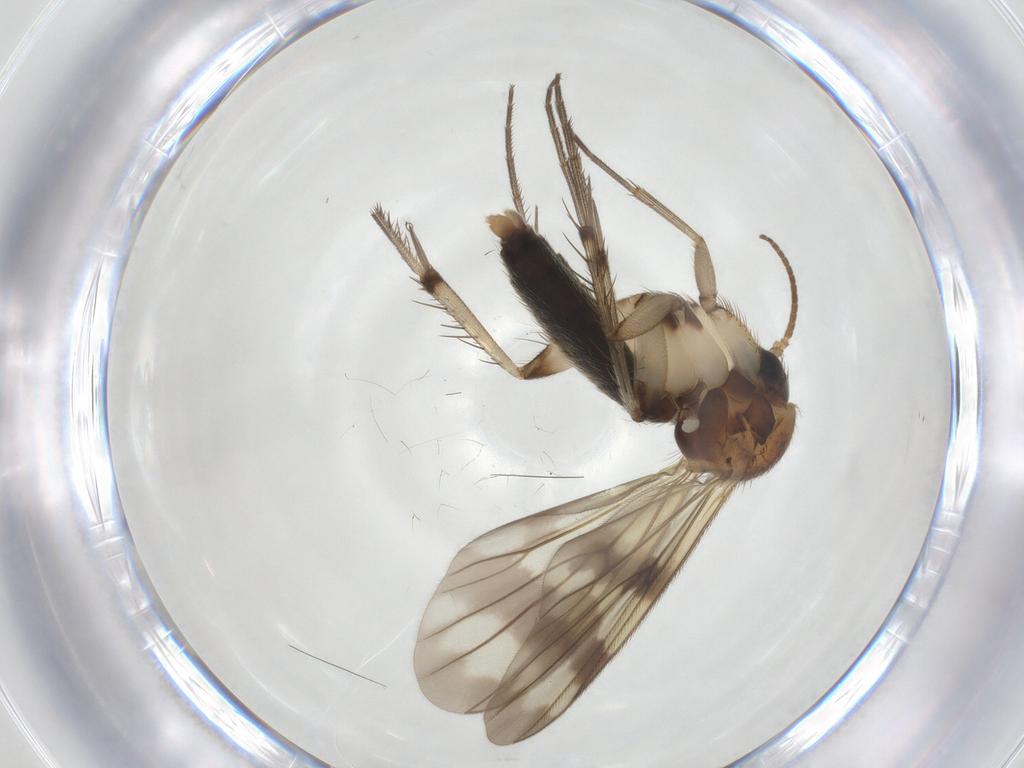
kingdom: Animalia
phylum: Arthropoda
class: Insecta
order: Diptera
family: Mycetophilidae
